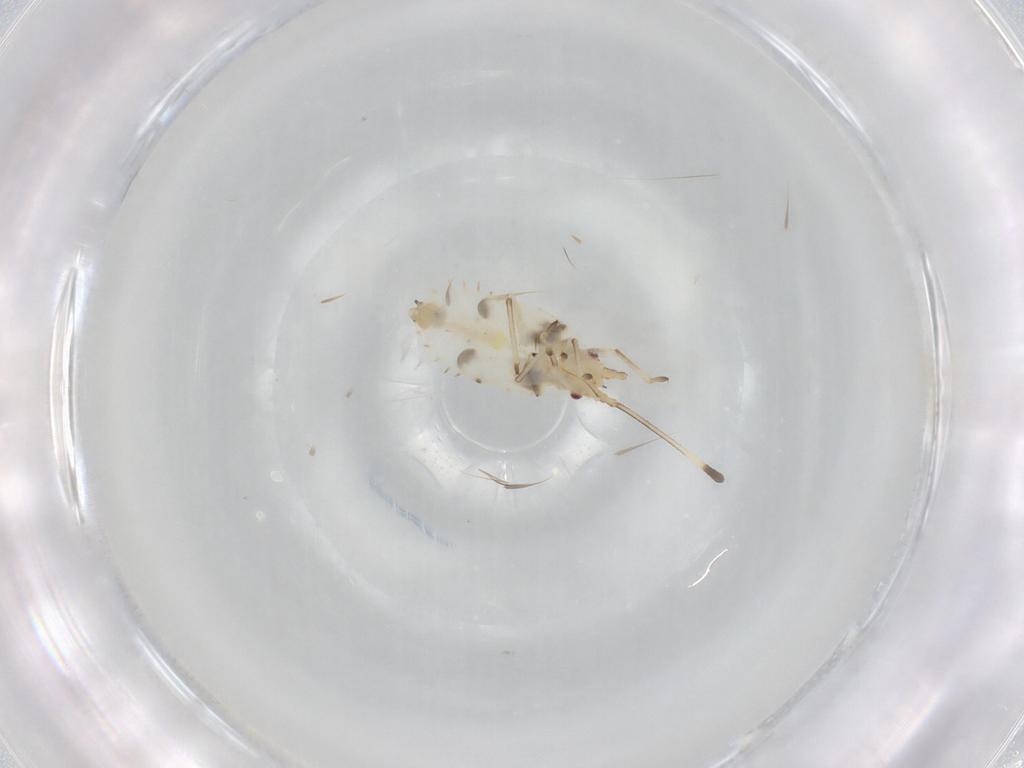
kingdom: Animalia
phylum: Arthropoda
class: Insecta
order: Hemiptera
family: Tingidae
